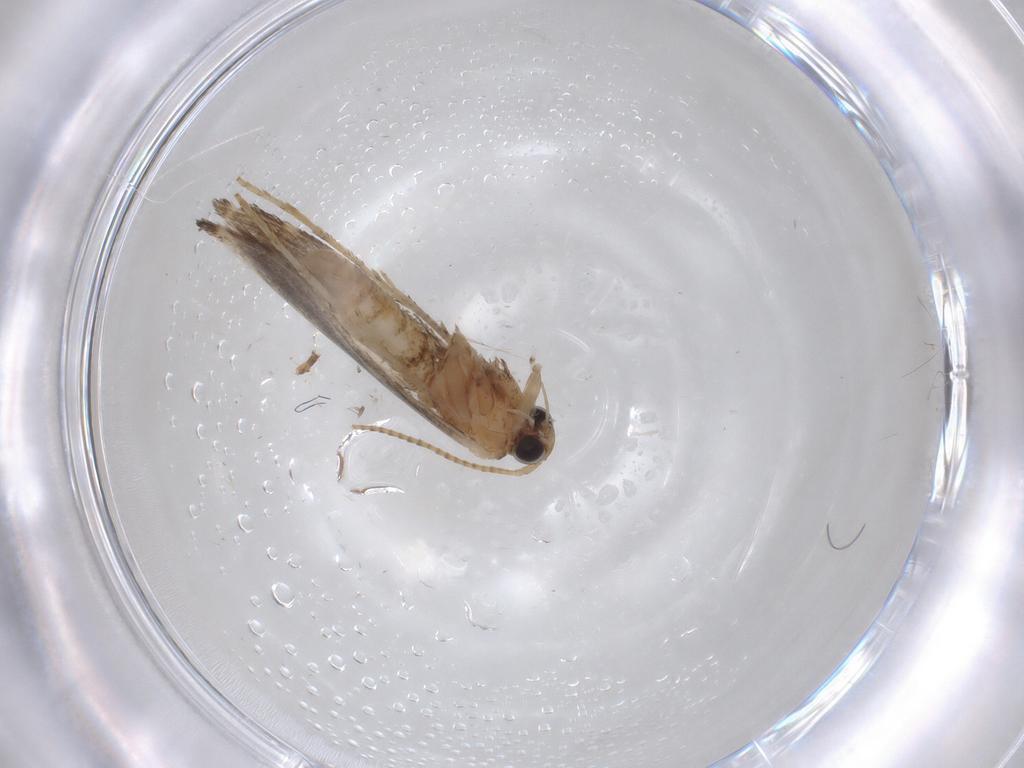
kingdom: Animalia
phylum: Arthropoda
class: Insecta
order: Lepidoptera
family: Gracillariidae
